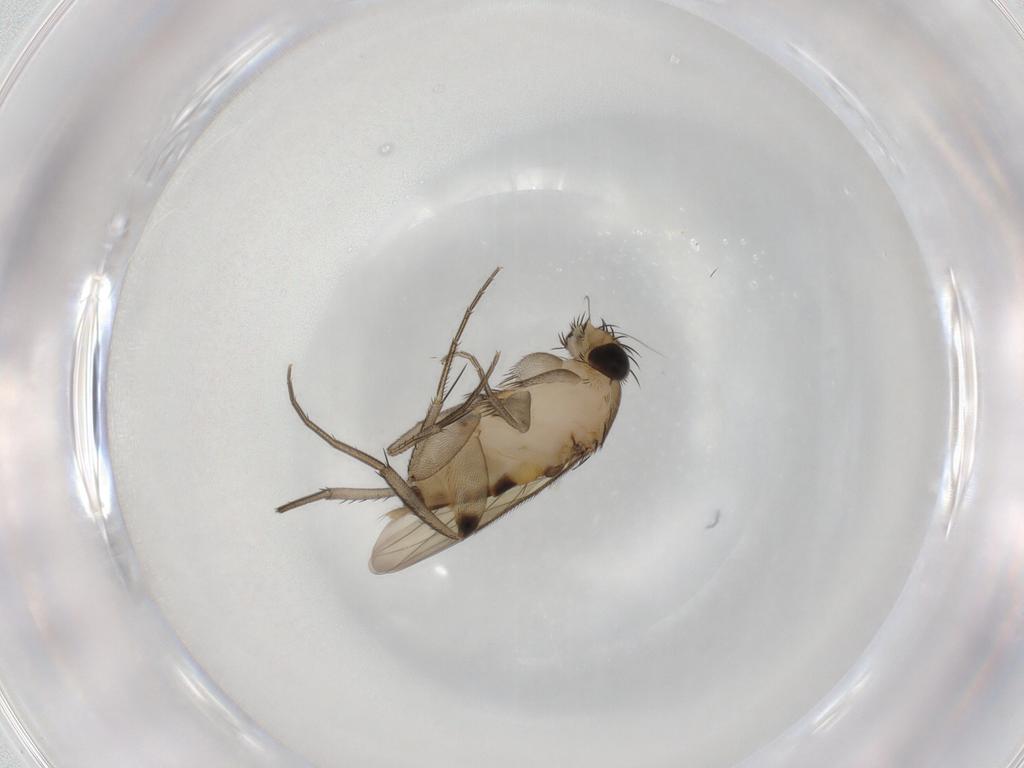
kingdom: Animalia
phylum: Arthropoda
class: Insecta
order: Diptera
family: Phoridae
